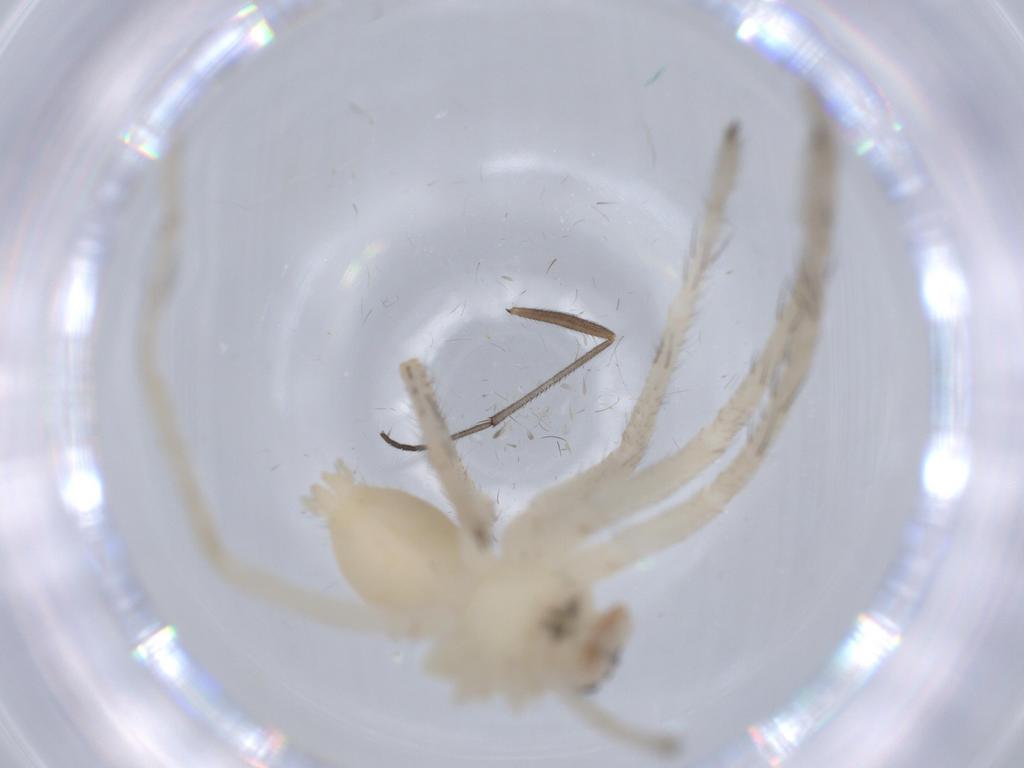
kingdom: Animalia
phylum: Arthropoda
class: Arachnida
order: Araneae
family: Sparassidae
